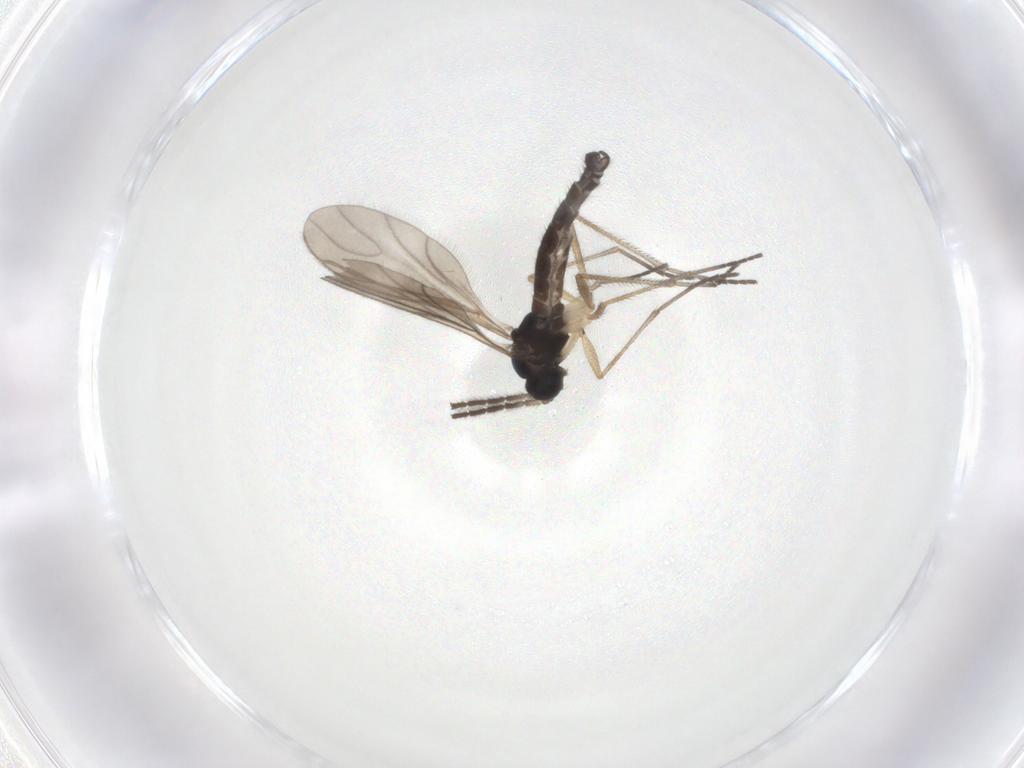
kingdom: Animalia
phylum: Arthropoda
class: Insecta
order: Diptera
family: Sciaridae
